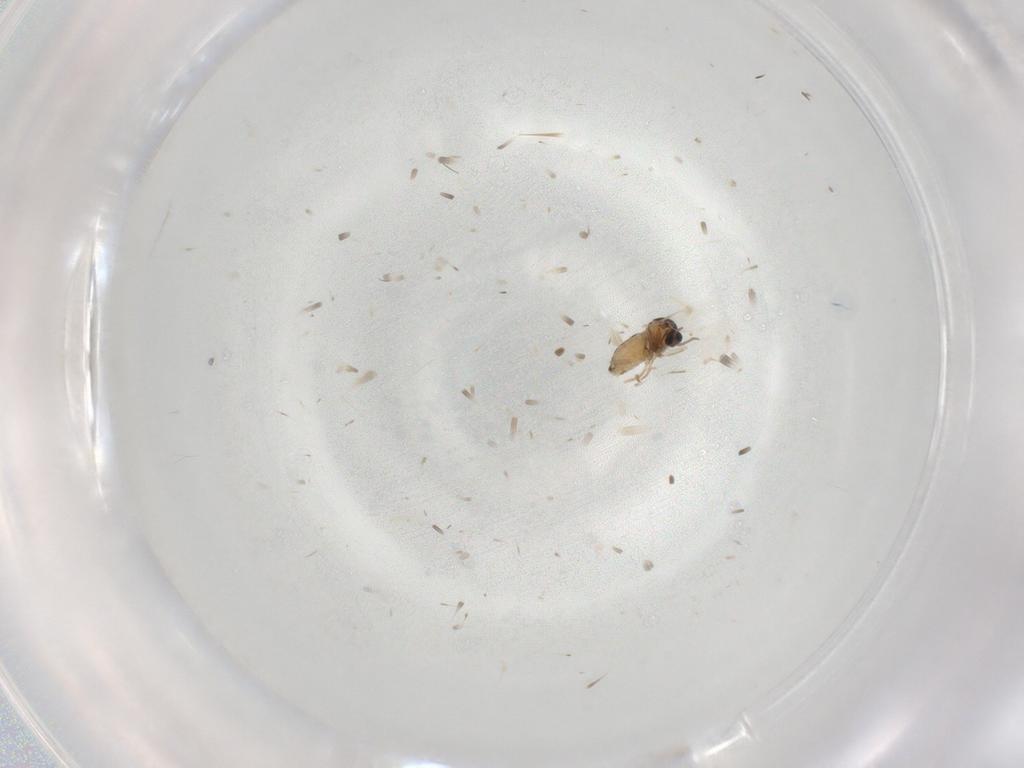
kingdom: Animalia
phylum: Arthropoda
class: Insecta
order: Diptera
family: Cecidomyiidae
